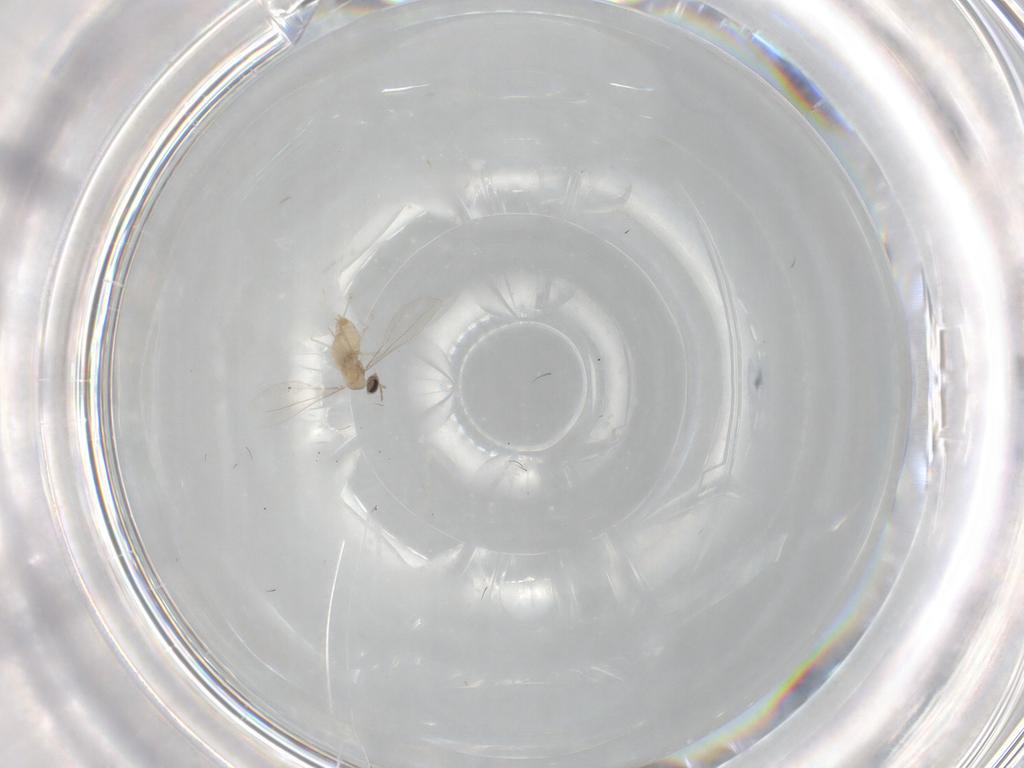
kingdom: Animalia
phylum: Arthropoda
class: Insecta
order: Diptera
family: Cecidomyiidae
